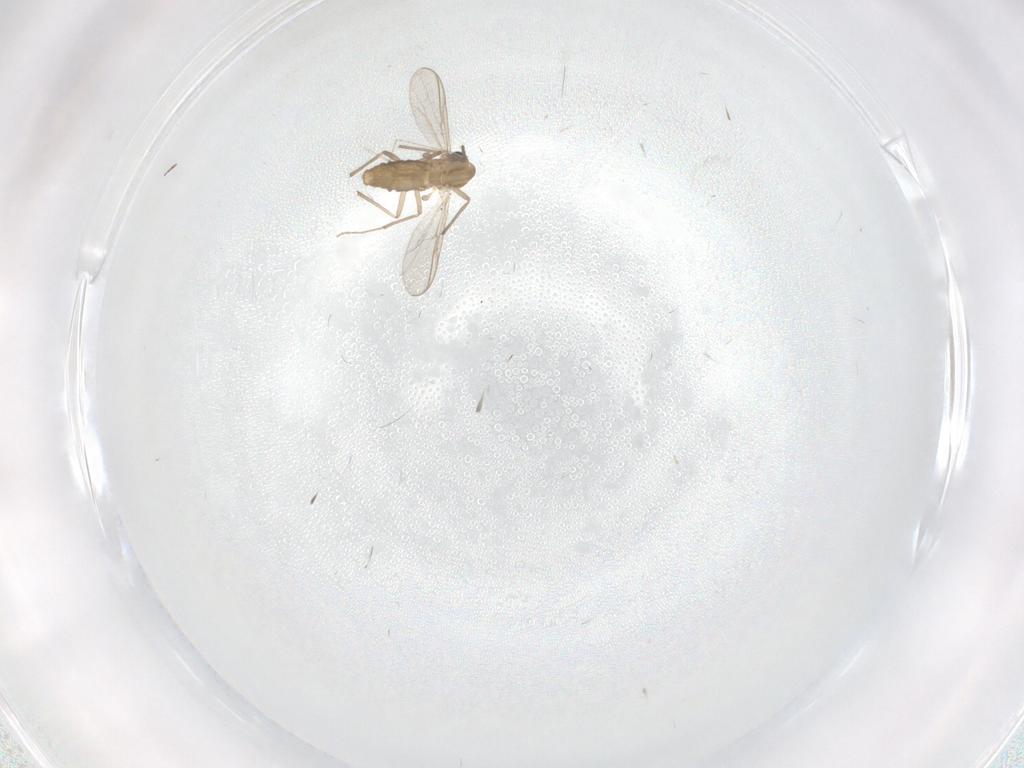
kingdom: Animalia
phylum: Arthropoda
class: Insecta
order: Diptera
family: Chironomidae
